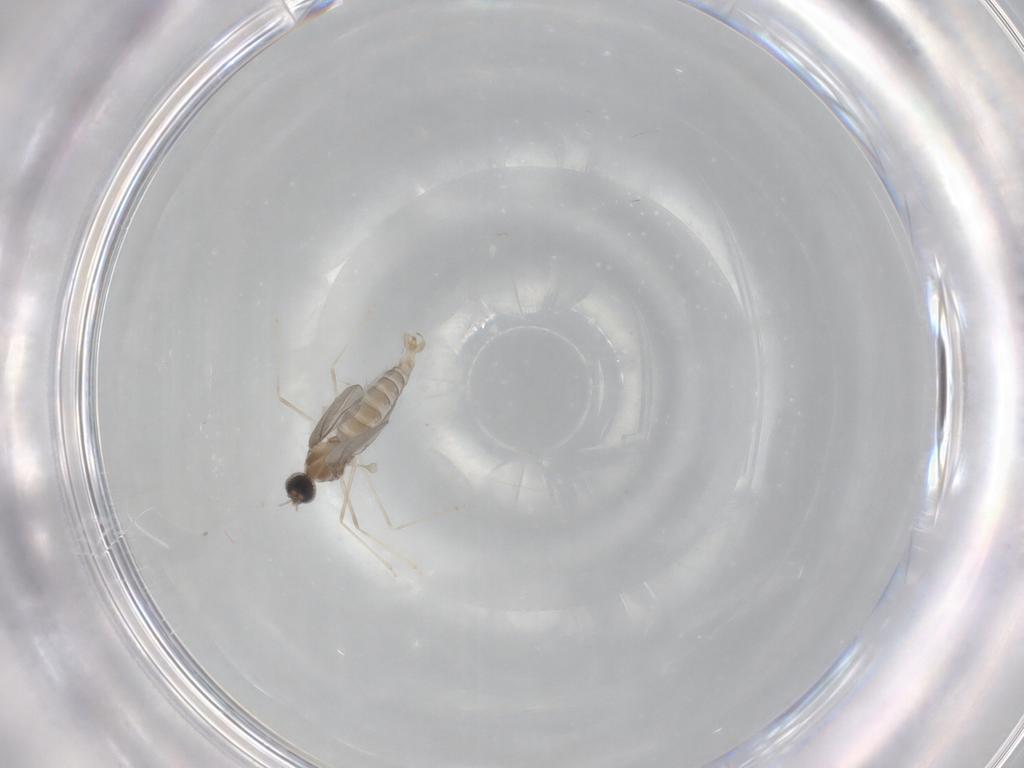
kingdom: Animalia
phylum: Arthropoda
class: Insecta
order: Diptera
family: Cecidomyiidae
